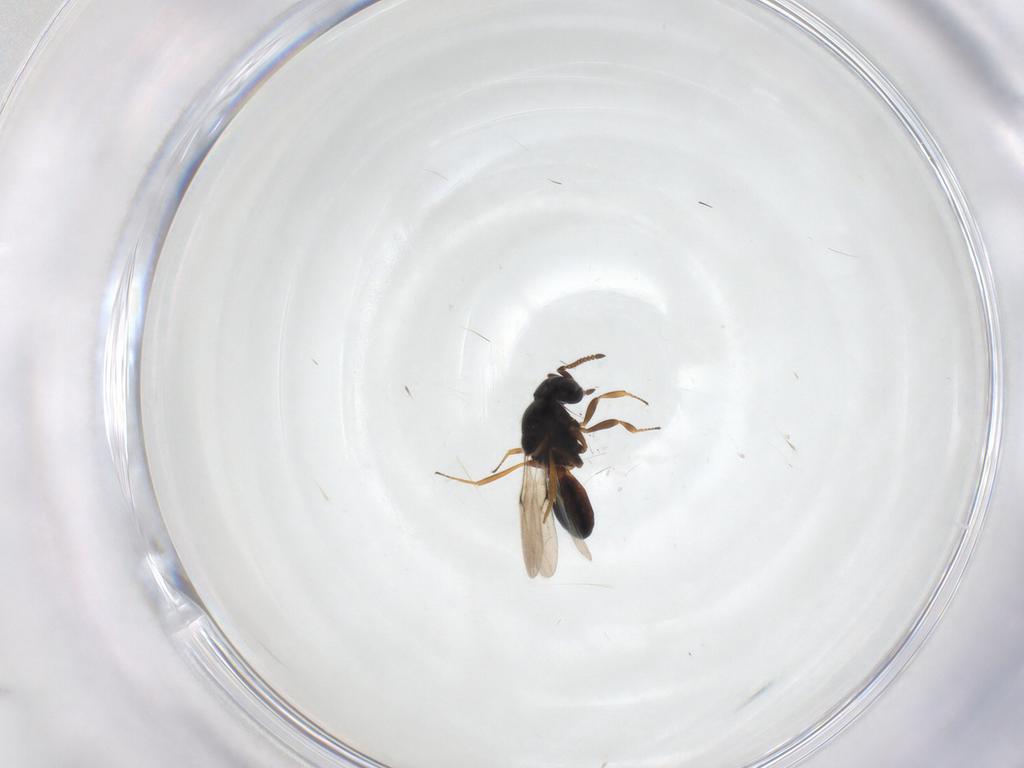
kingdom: Animalia
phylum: Arthropoda
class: Insecta
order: Hymenoptera
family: Scelionidae
